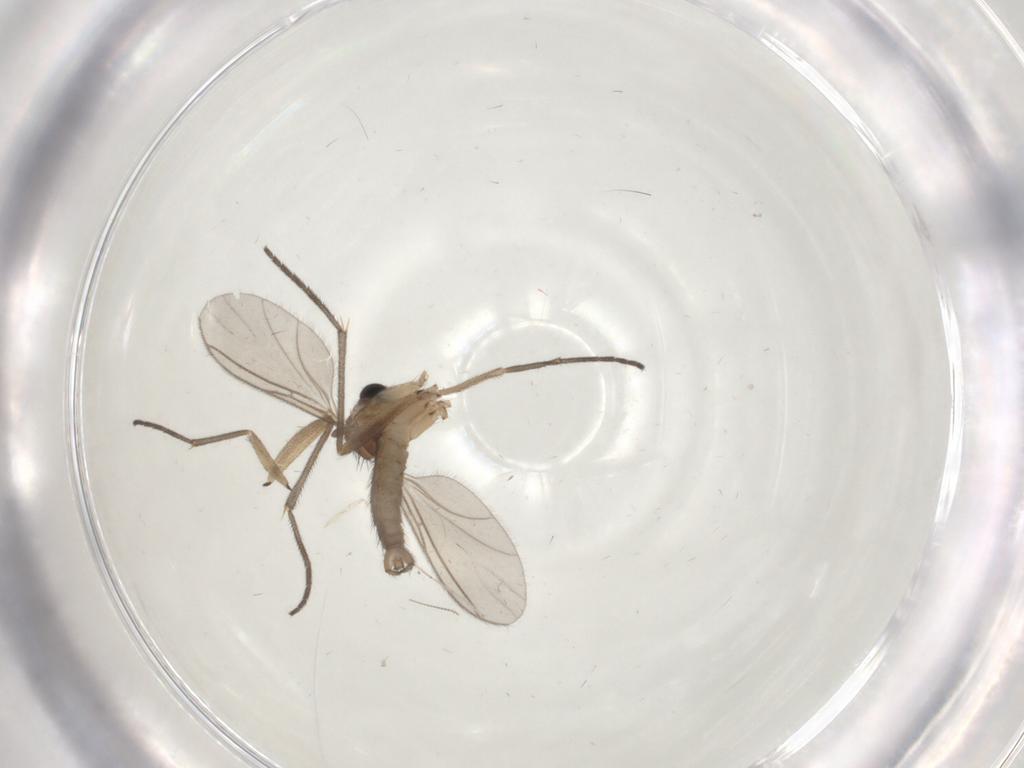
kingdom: Animalia
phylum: Arthropoda
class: Insecta
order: Diptera
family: Sciaridae
